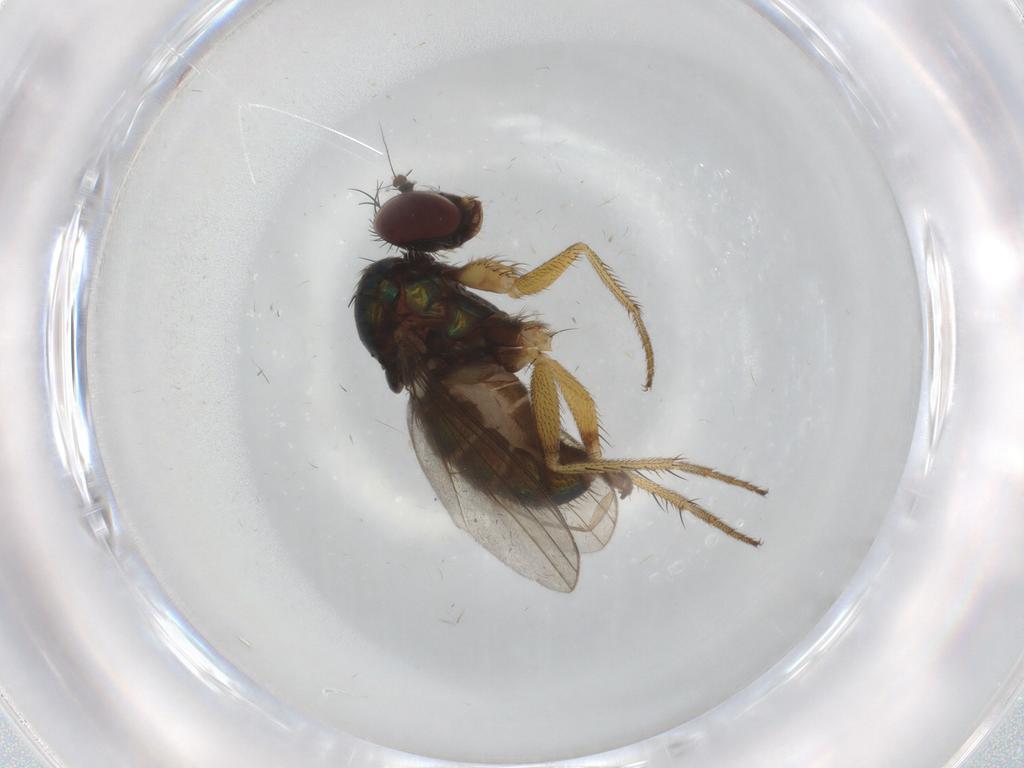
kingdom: Animalia
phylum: Arthropoda
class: Insecta
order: Diptera
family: Dolichopodidae
